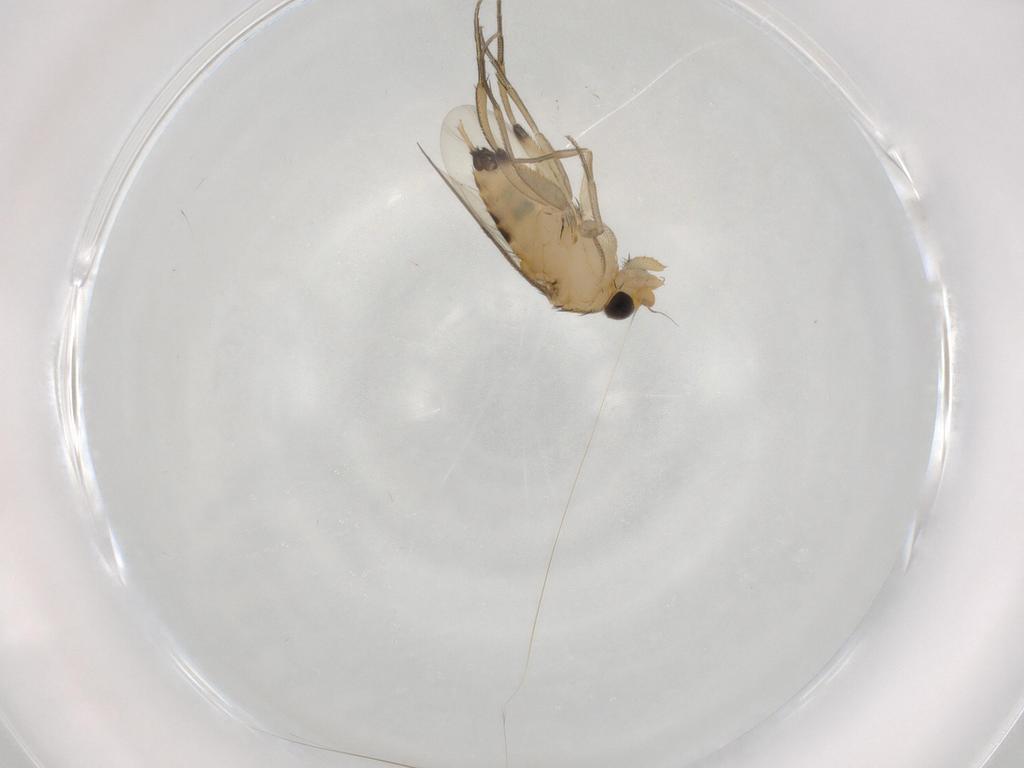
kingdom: Animalia
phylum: Arthropoda
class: Insecta
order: Diptera
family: Phoridae
